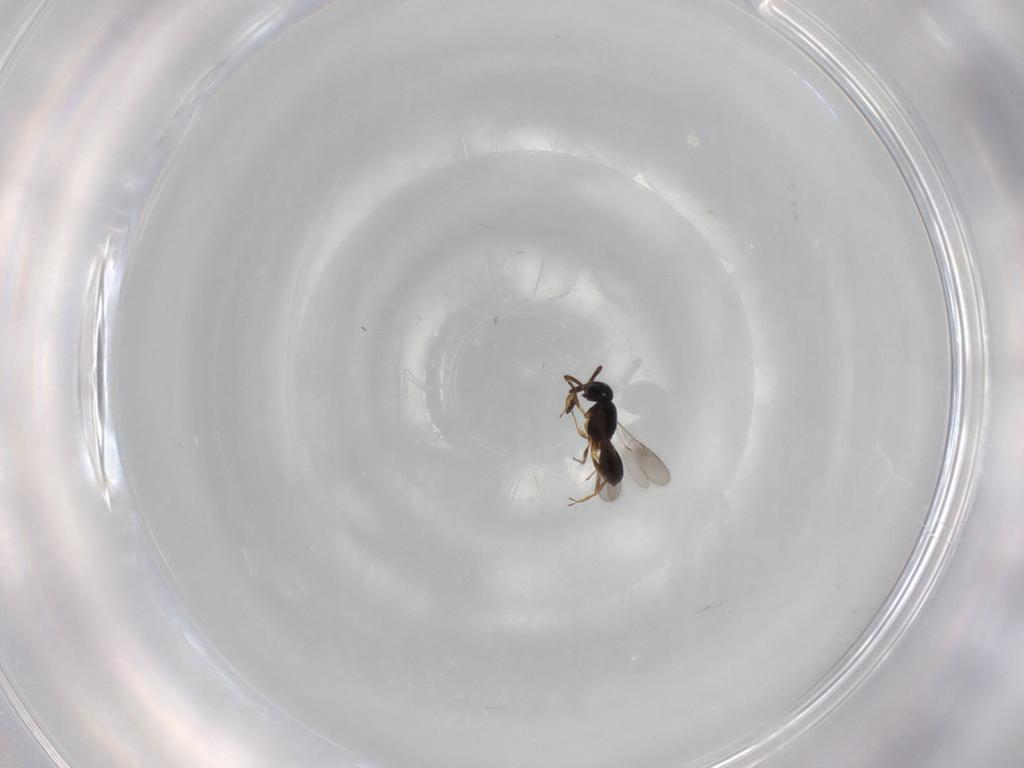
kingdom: Animalia
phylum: Arthropoda
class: Insecta
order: Hymenoptera
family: Scelionidae
